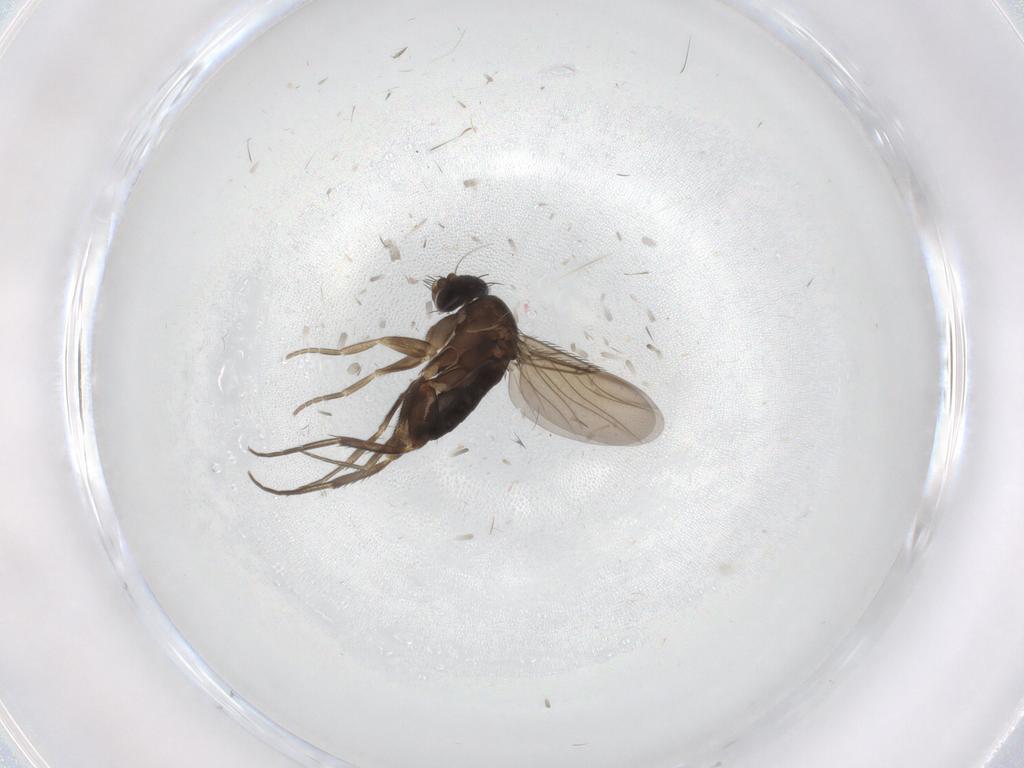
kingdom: Animalia
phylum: Arthropoda
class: Insecta
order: Diptera
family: Phoridae
